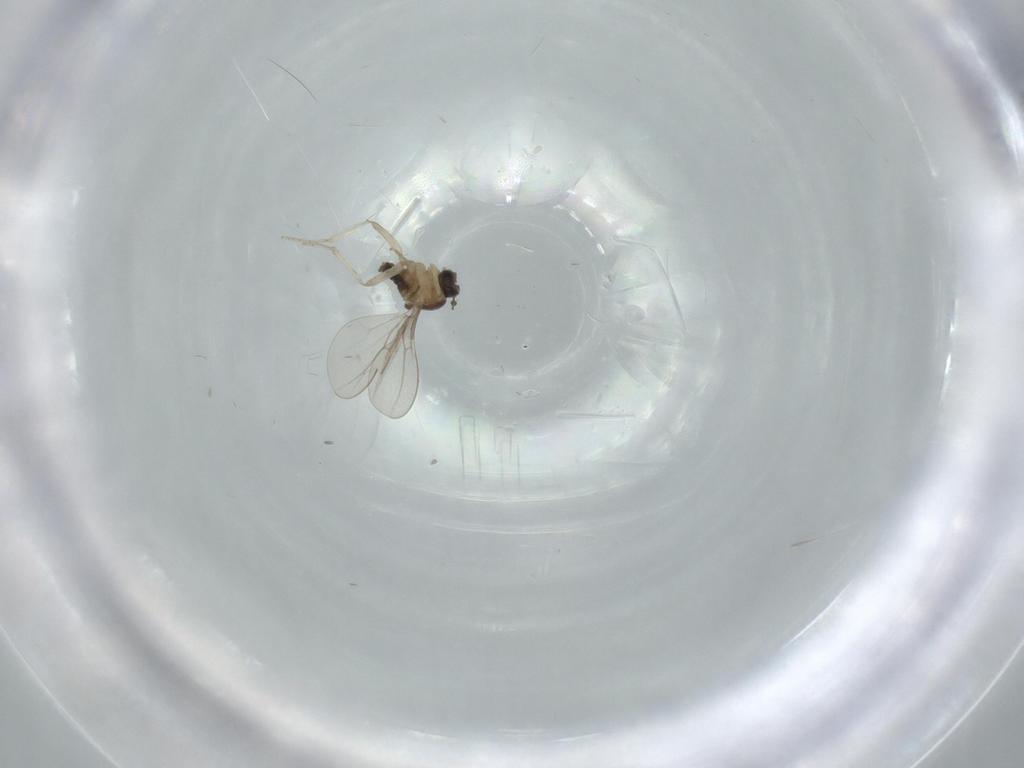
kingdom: Animalia
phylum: Arthropoda
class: Insecta
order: Diptera
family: Cecidomyiidae
